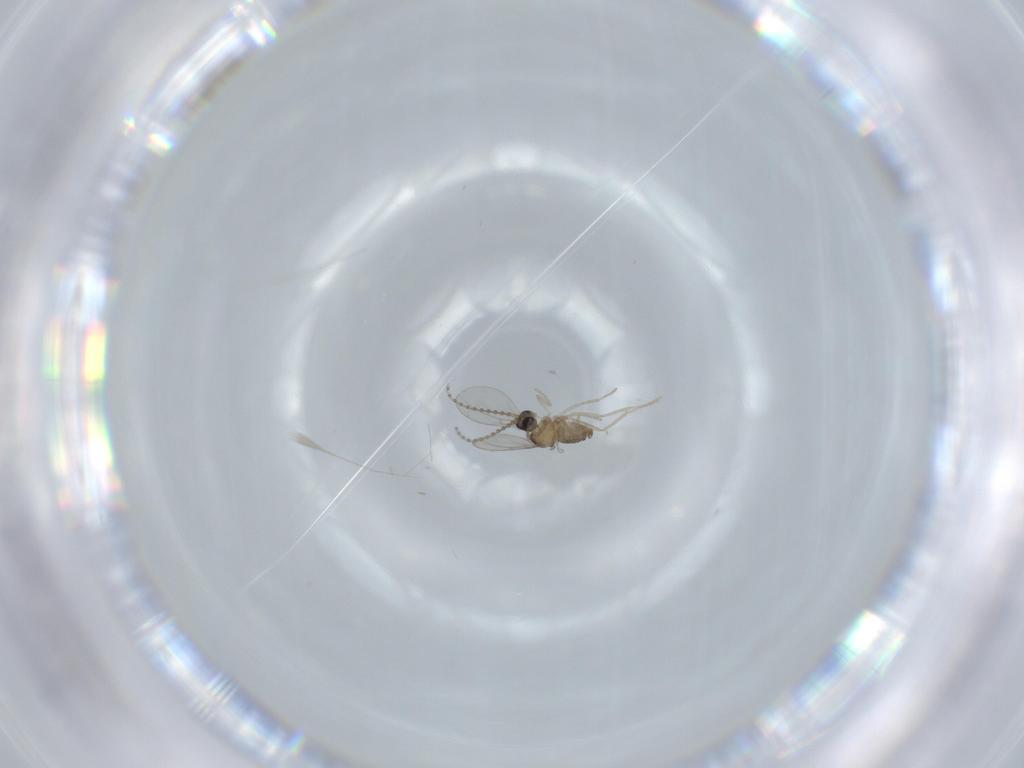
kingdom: Animalia
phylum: Arthropoda
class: Insecta
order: Diptera
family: Cecidomyiidae
